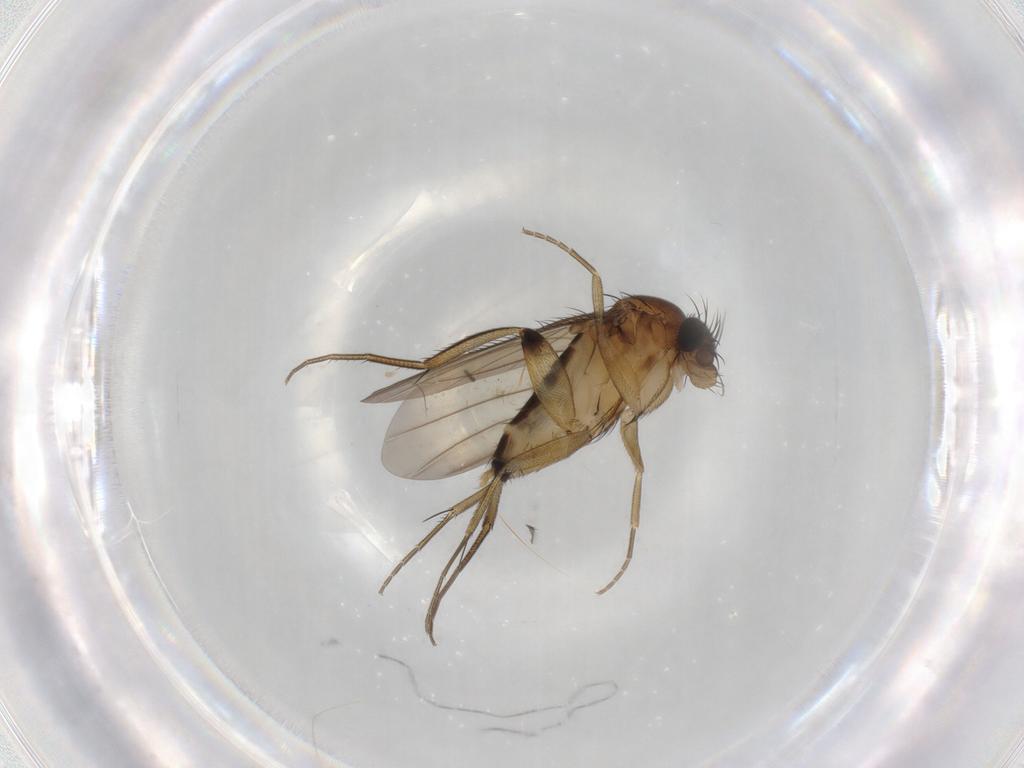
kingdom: Animalia
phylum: Arthropoda
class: Insecta
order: Diptera
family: Phoridae
